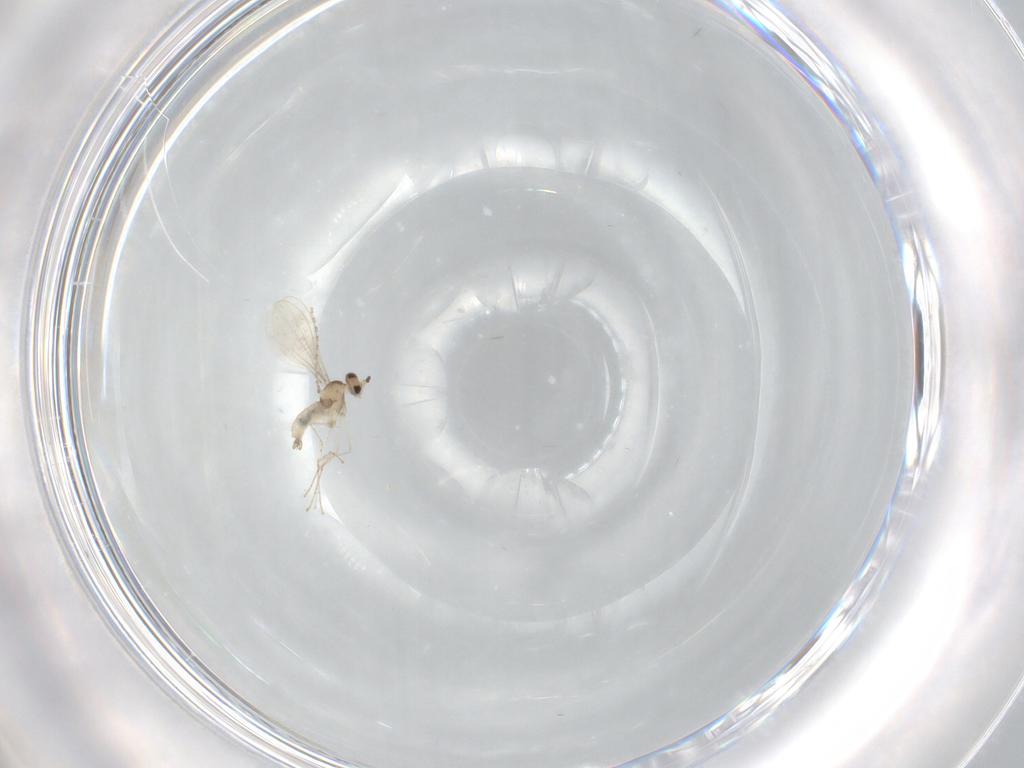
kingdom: Animalia
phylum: Arthropoda
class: Insecta
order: Diptera
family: Cecidomyiidae
